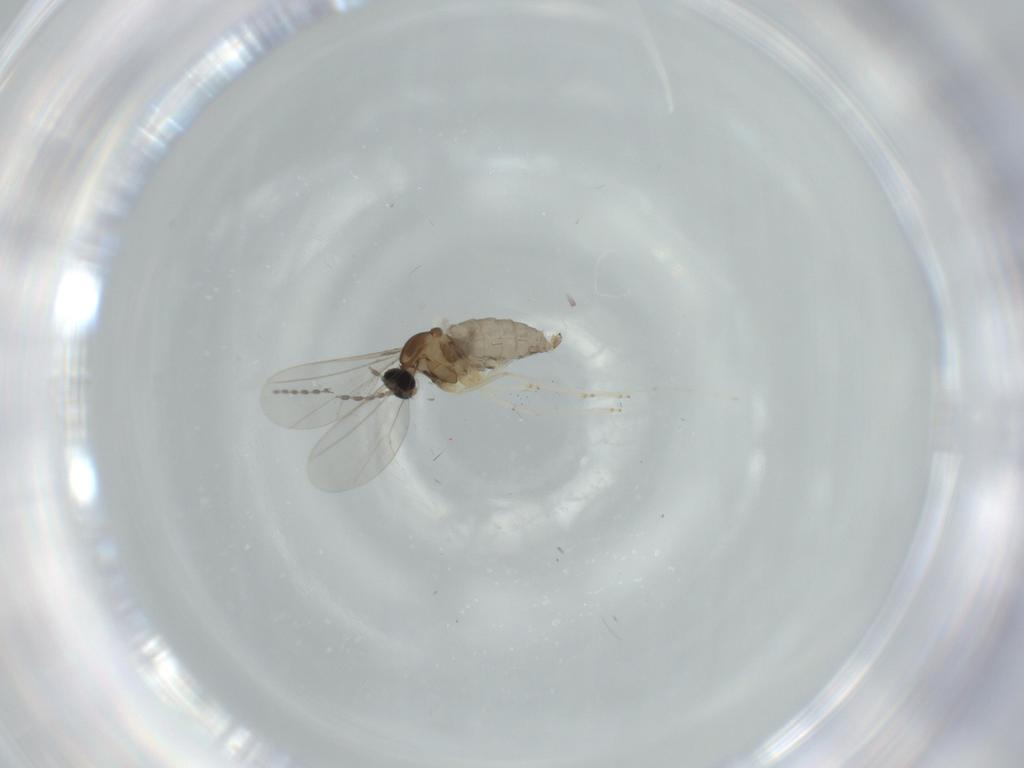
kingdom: Animalia
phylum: Arthropoda
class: Insecta
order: Diptera
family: Cecidomyiidae
